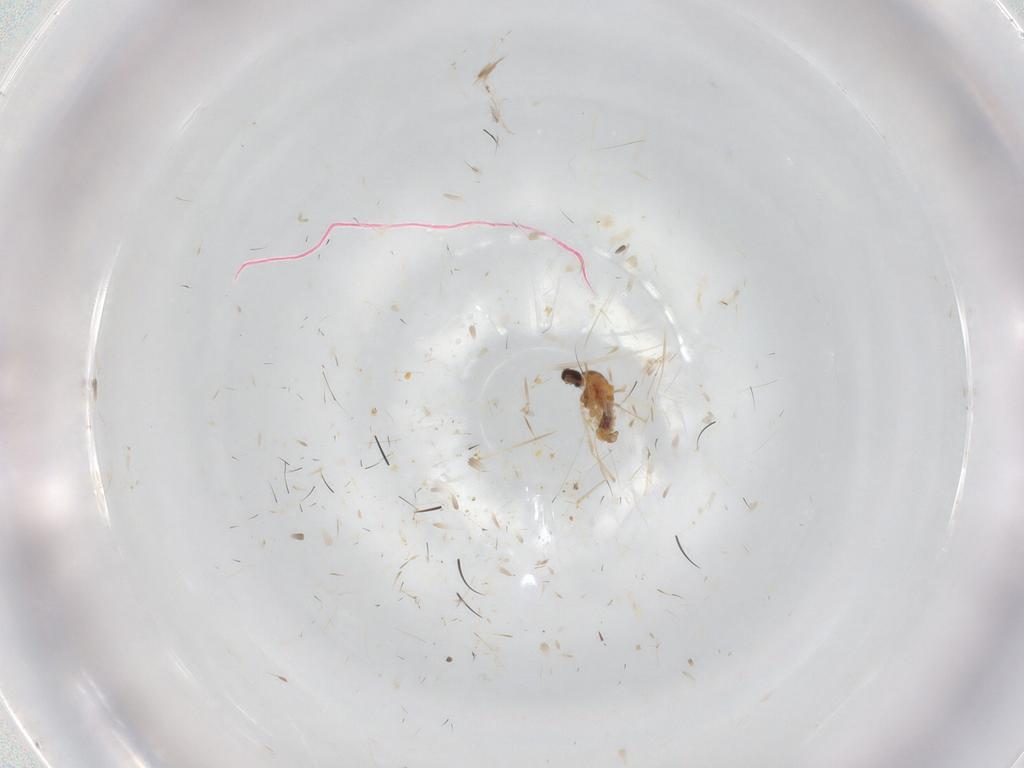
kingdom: Animalia
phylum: Arthropoda
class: Insecta
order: Diptera
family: Cecidomyiidae
